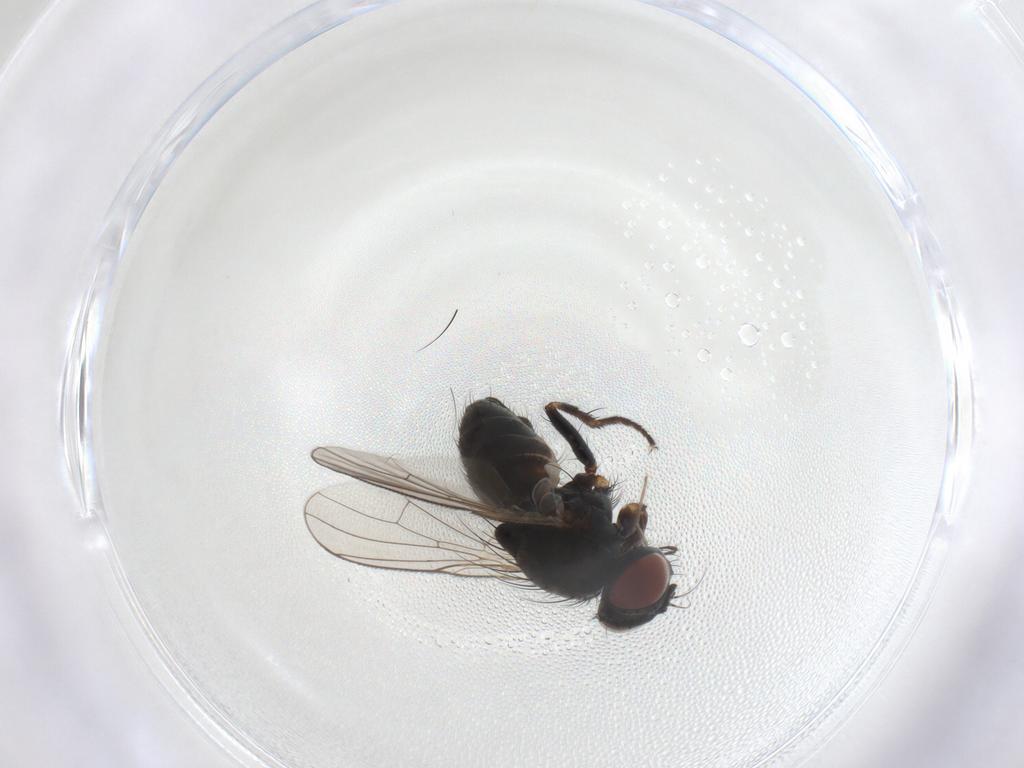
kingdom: Animalia
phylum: Arthropoda
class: Insecta
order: Diptera
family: Muscidae
